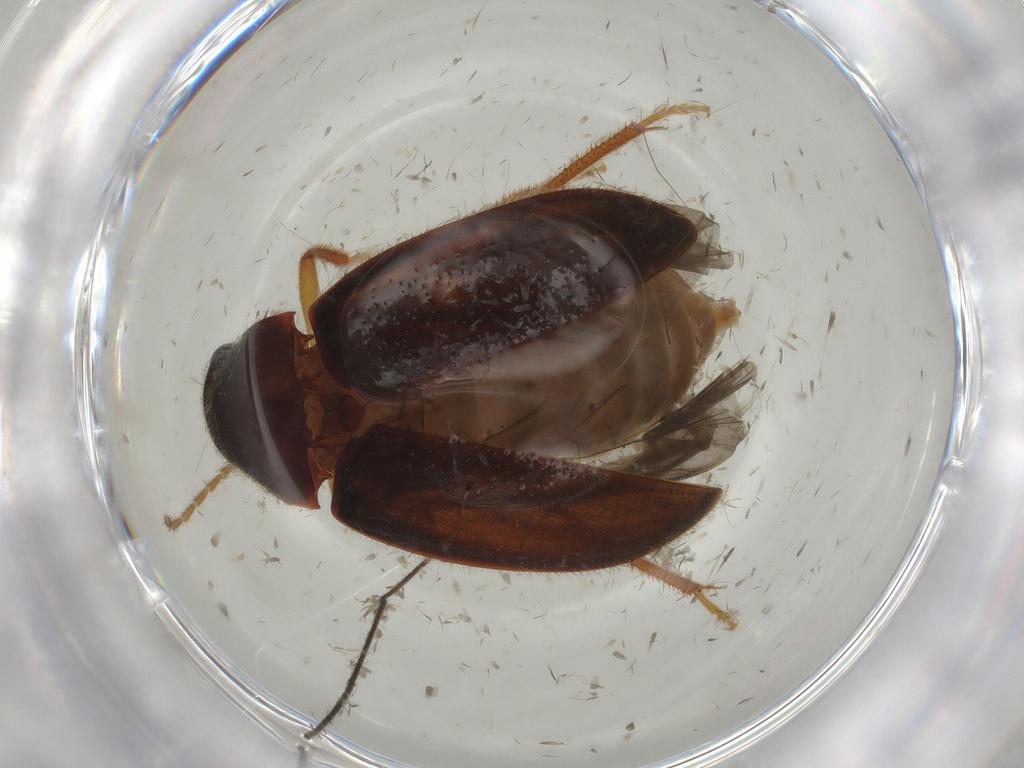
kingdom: Animalia
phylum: Arthropoda
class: Insecta
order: Coleoptera
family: Ptilodactylidae
